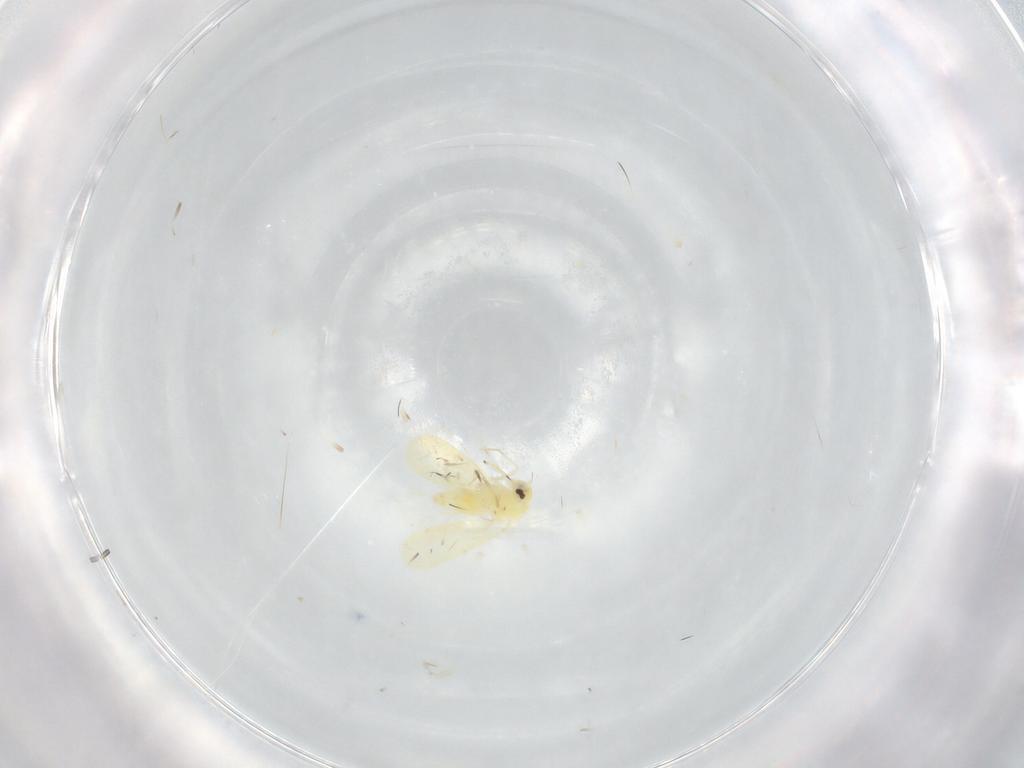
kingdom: Animalia
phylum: Arthropoda
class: Insecta
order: Hemiptera
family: Aleyrodidae
